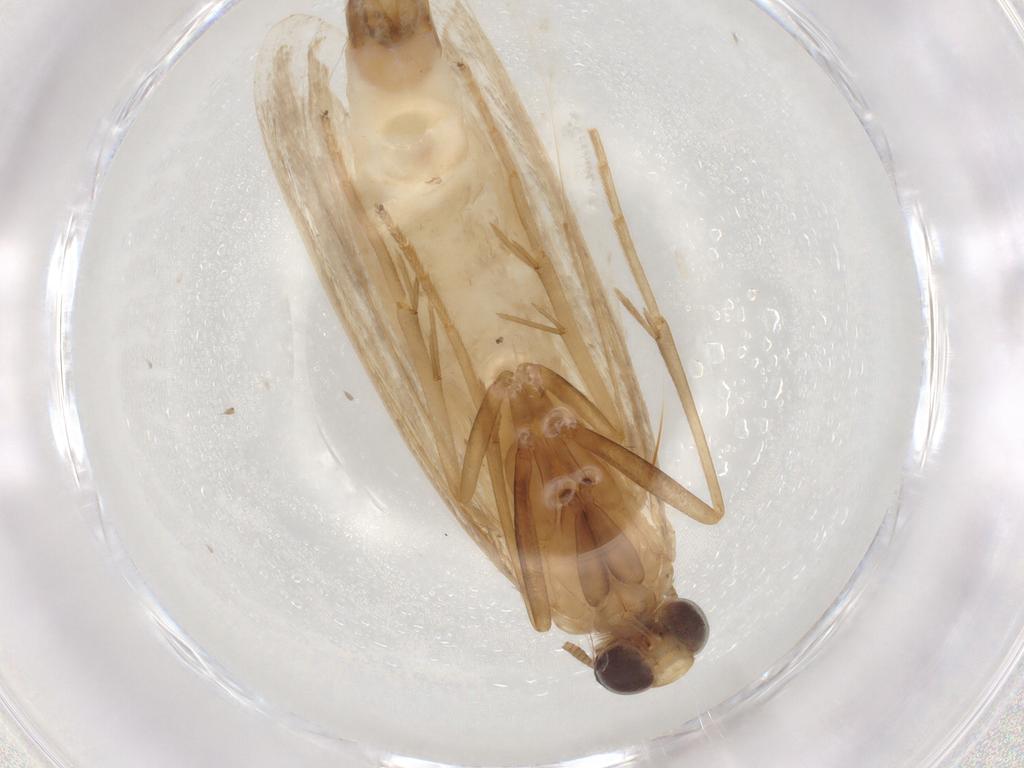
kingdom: Animalia
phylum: Arthropoda
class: Insecta
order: Lepidoptera
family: Pyralidae
